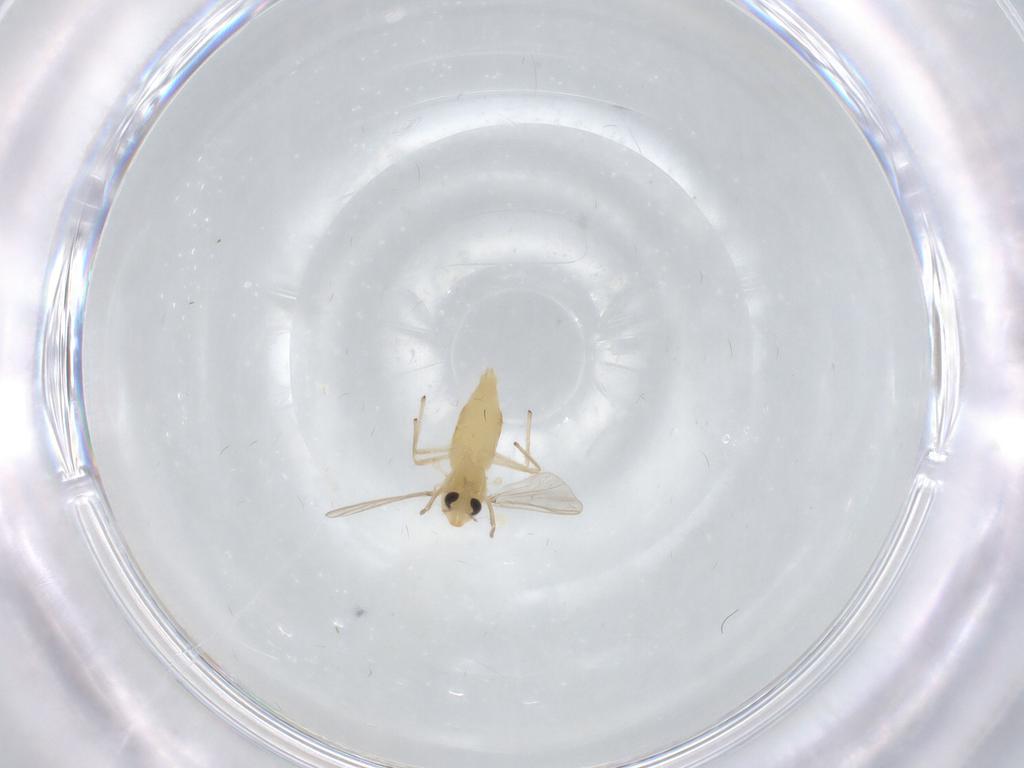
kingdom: Animalia
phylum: Arthropoda
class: Insecta
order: Diptera
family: Chironomidae
